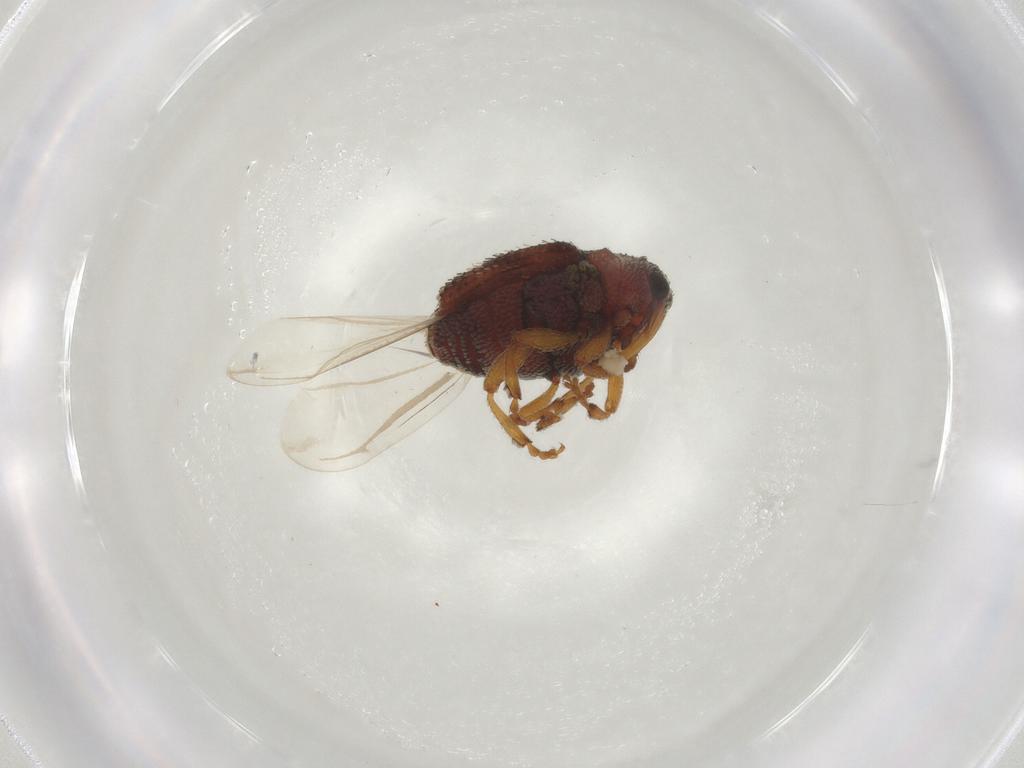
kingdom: Animalia
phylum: Arthropoda
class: Insecta
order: Coleoptera
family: Curculionidae
